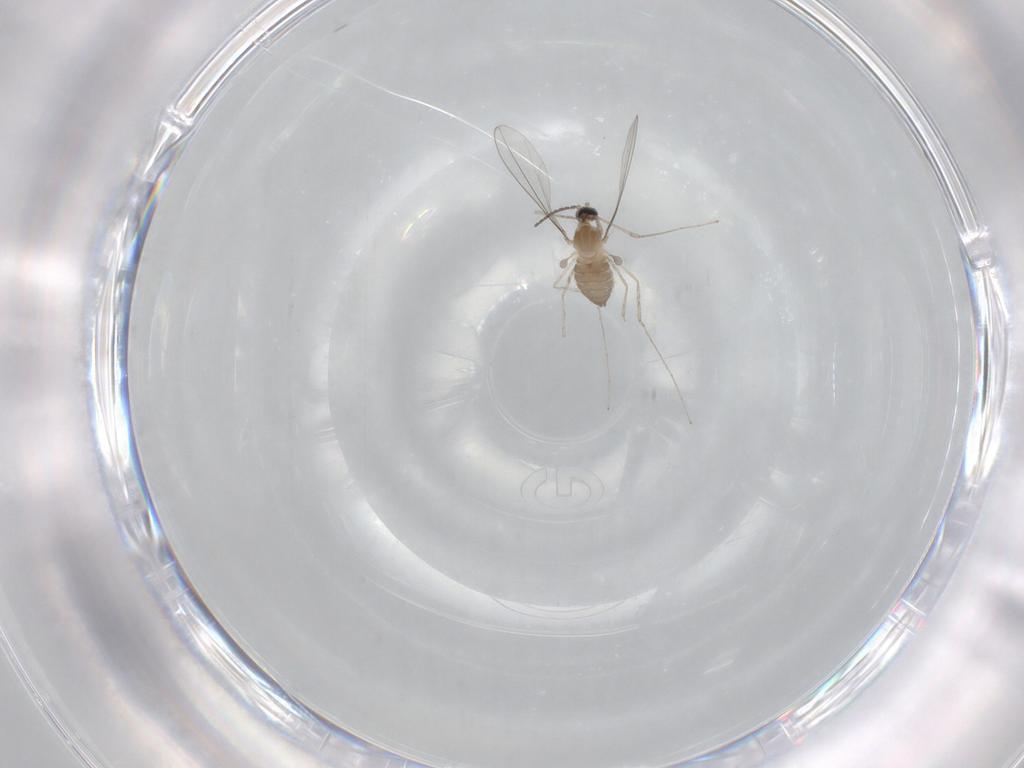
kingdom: Animalia
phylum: Arthropoda
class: Insecta
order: Diptera
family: Cecidomyiidae
